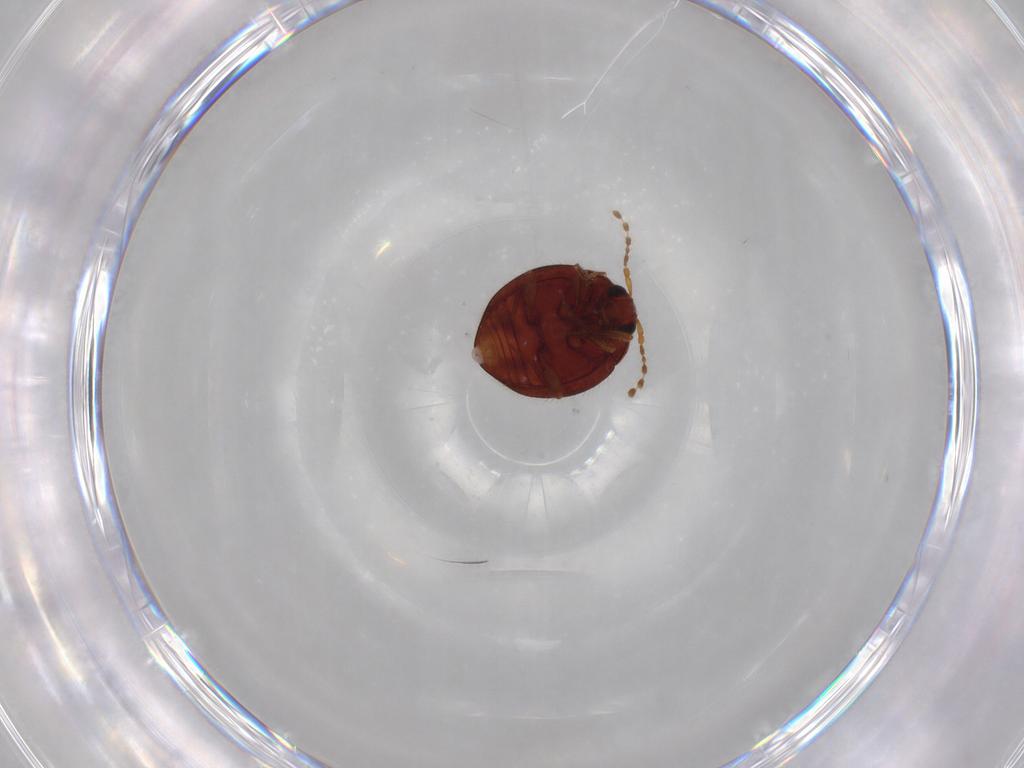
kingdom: Animalia
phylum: Arthropoda
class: Insecta
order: Coleoptera
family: Anamorphidae
